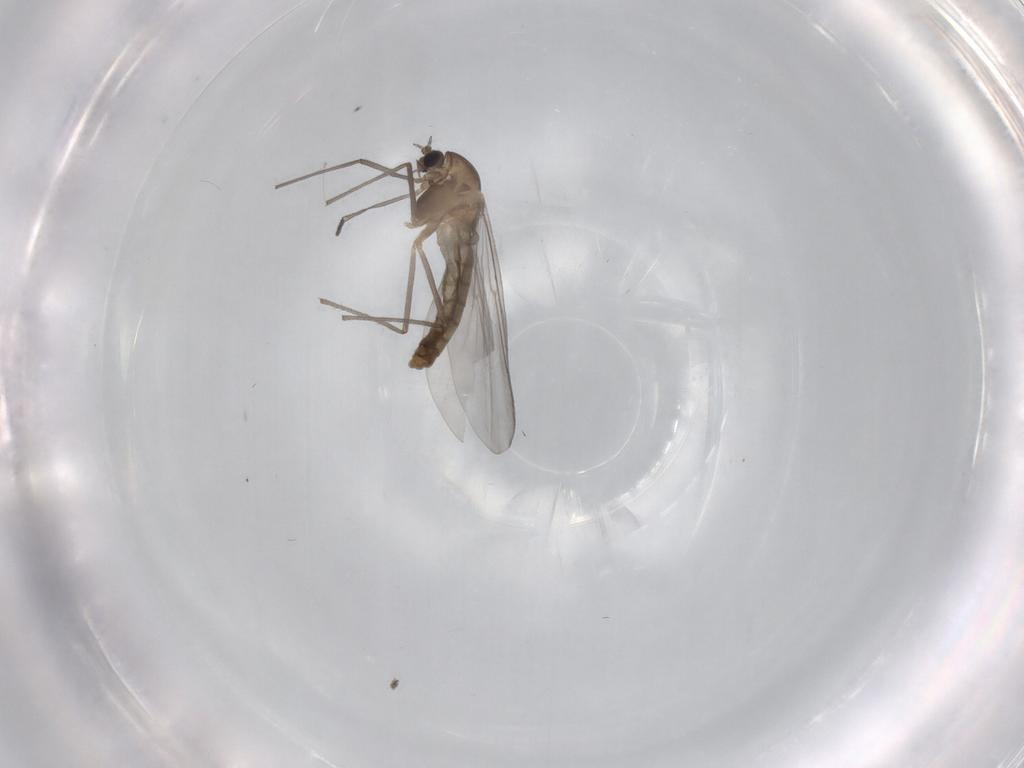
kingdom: Animalia
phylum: Arthropoda
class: Insecta
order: Diptera
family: Chironomidae
